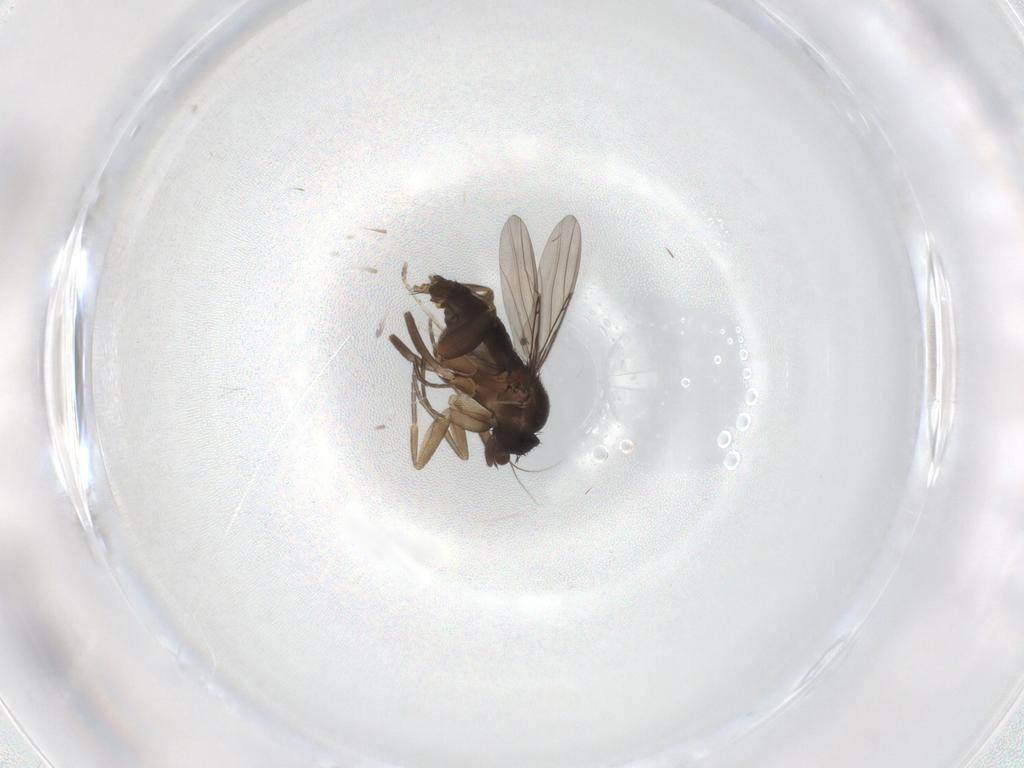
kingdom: Animalia
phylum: Arthropoda
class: Insecta
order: Diptera
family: Phoridae
